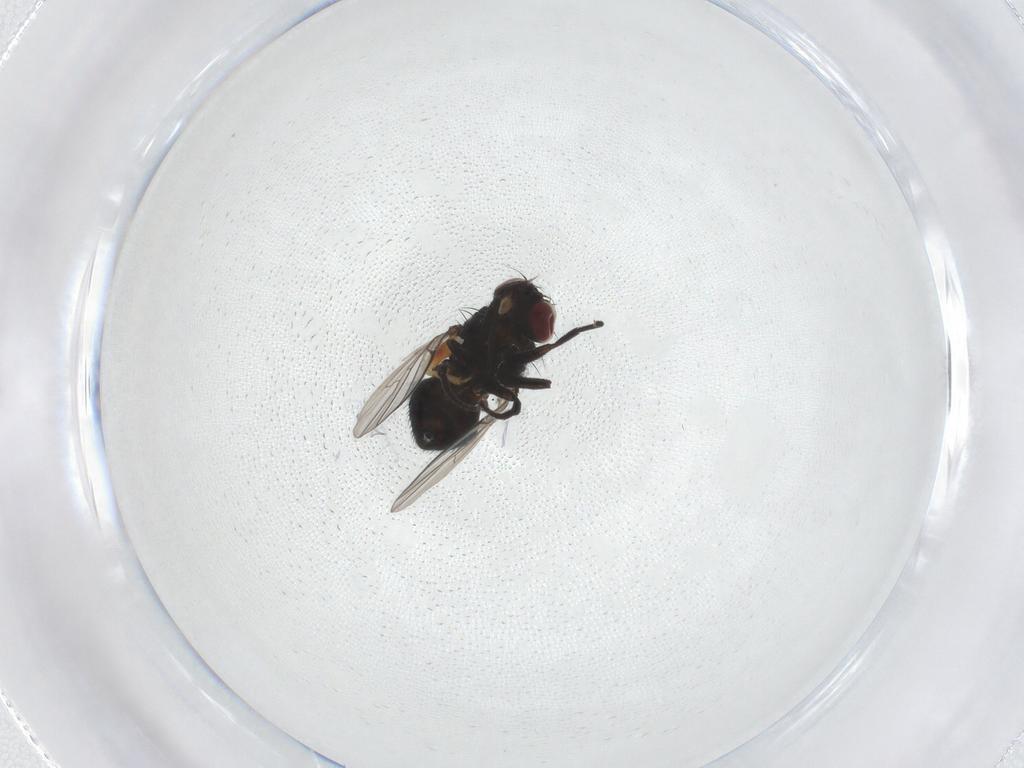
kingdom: Animalia
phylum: Arthropoda
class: Insecta
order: Diptera
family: Agromyzidae
